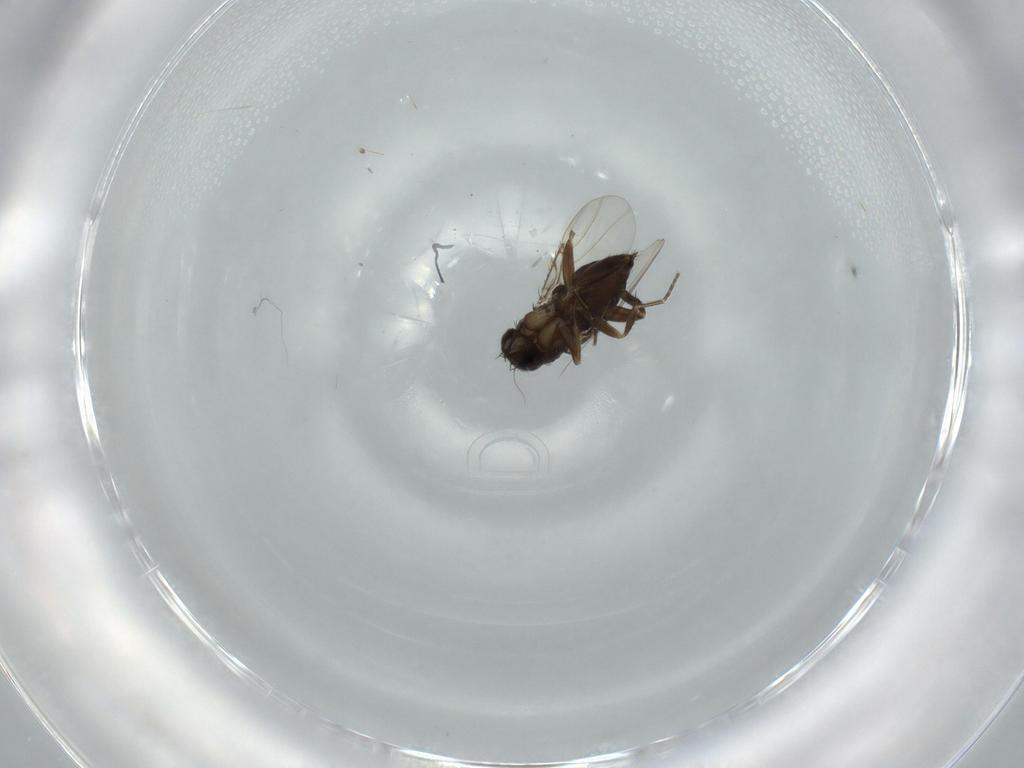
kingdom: Animalia
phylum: Arthropoda
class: Insecta
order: Diptera
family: Phoridae
